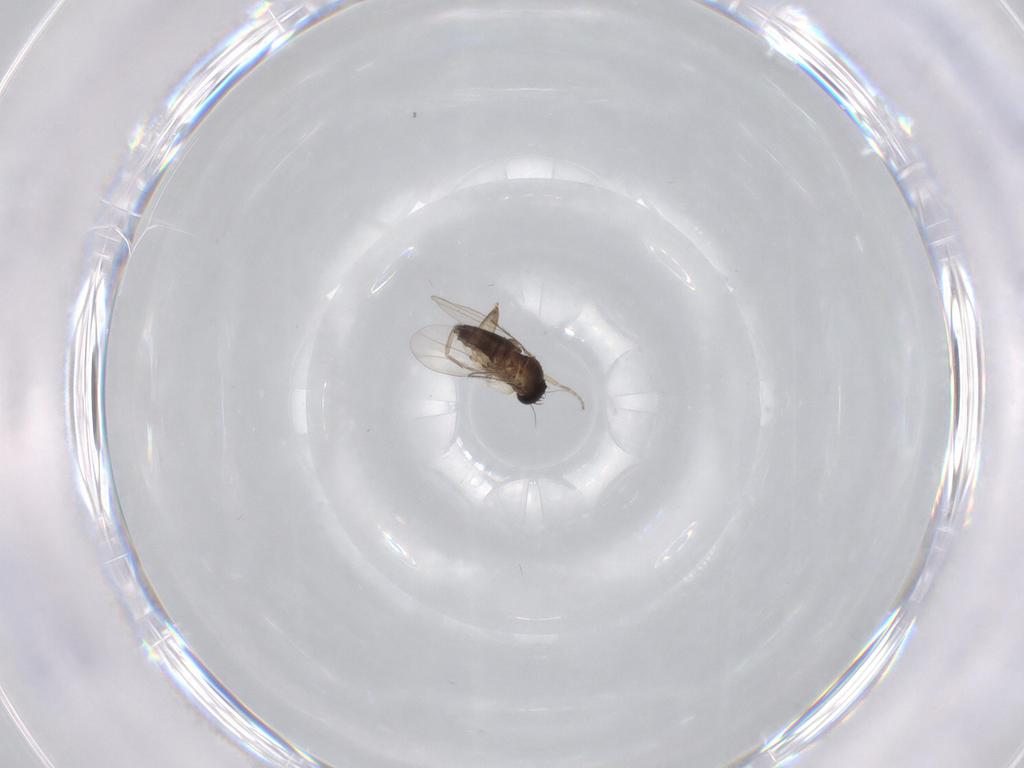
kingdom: Animalia
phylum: Arthropoda
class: Insecta
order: Diptera
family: Phoridae
